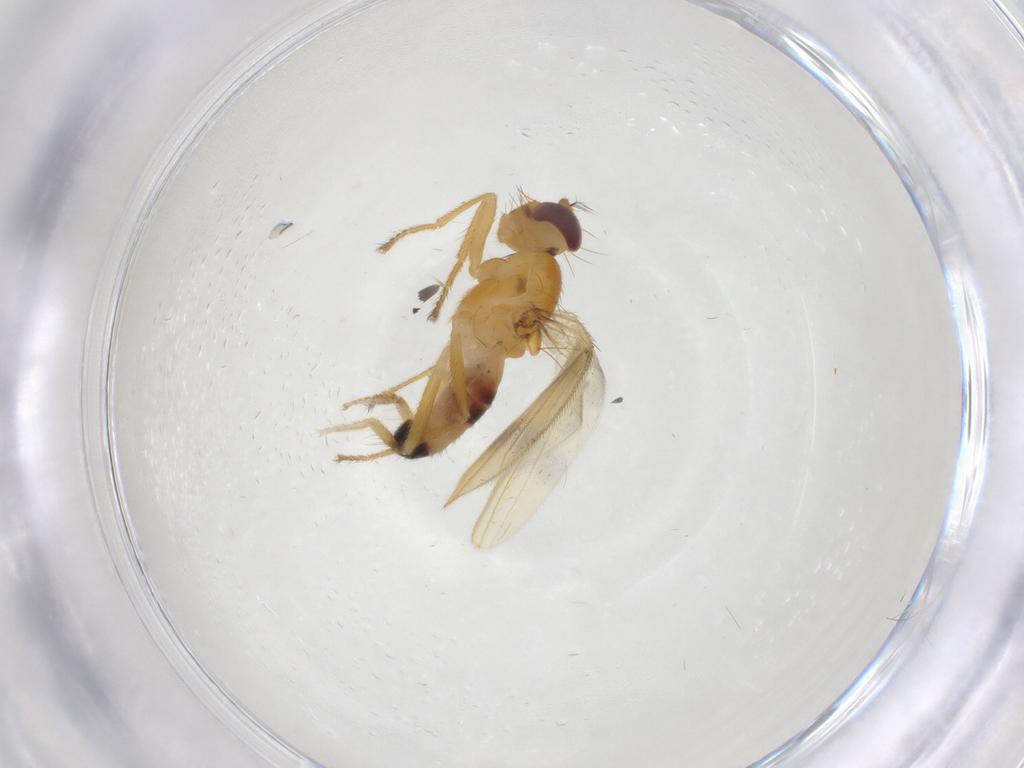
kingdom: Animalia
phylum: Arthropoda
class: Insecta
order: Diptera
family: Periscelididae
